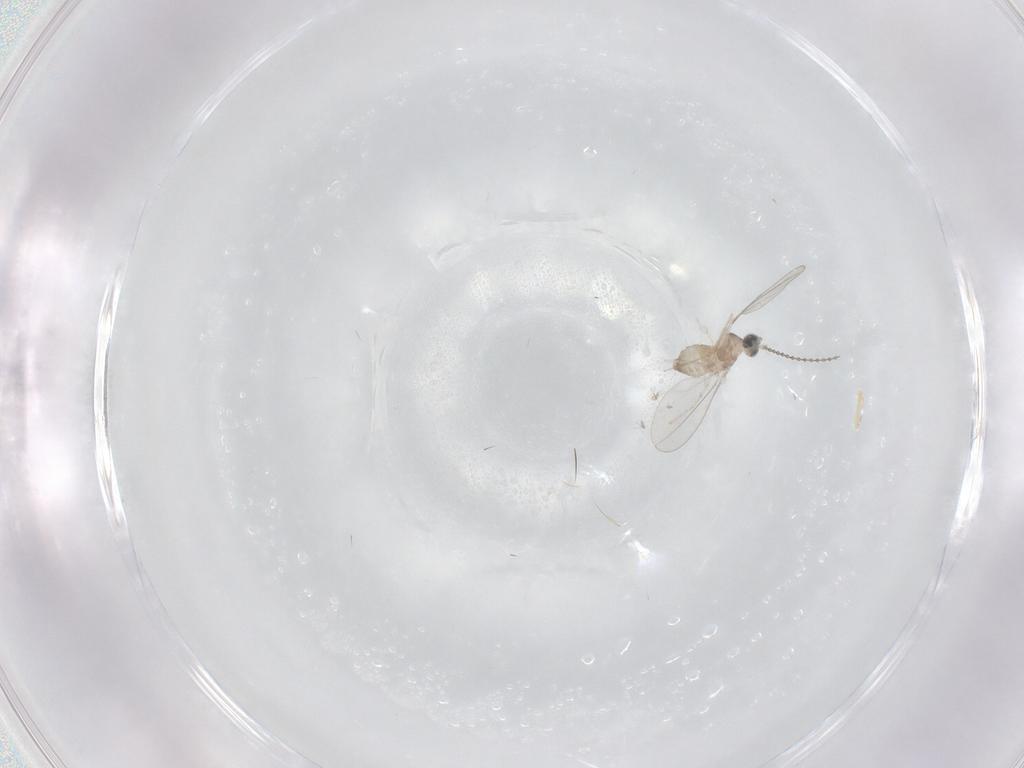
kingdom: Animalia
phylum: Arthropoda
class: Insecta
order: Diptera
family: Cecidomyiidae
